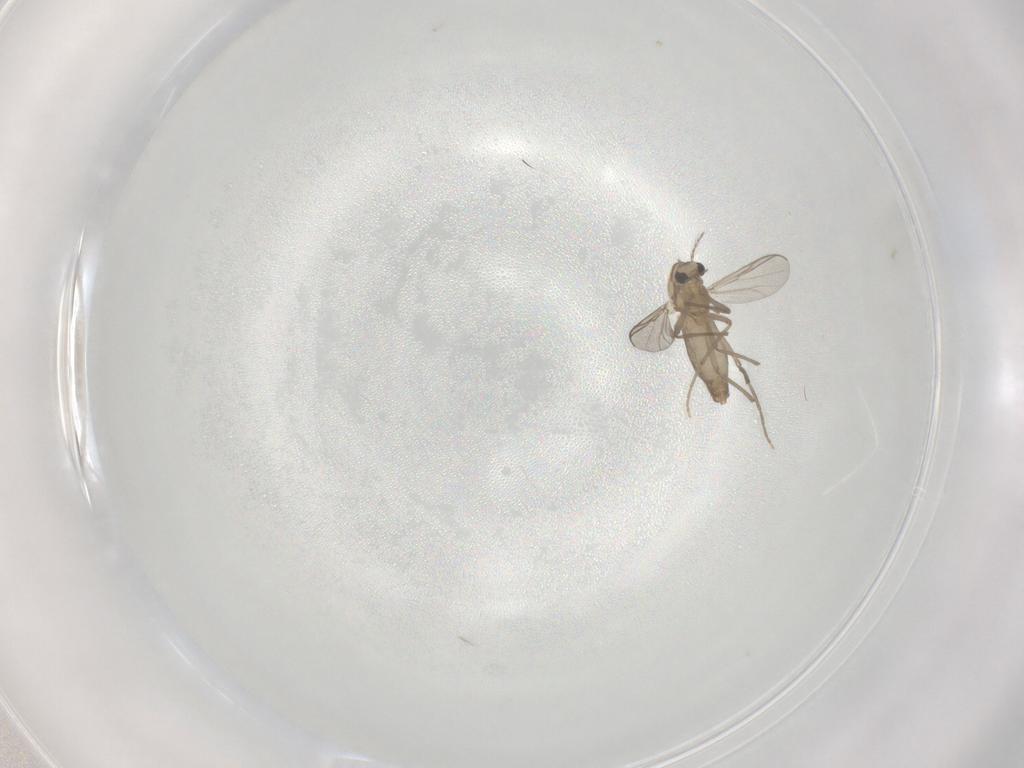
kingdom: Animalia
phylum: Arthropoda
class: Insecta
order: Diptera
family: Chironomidae
